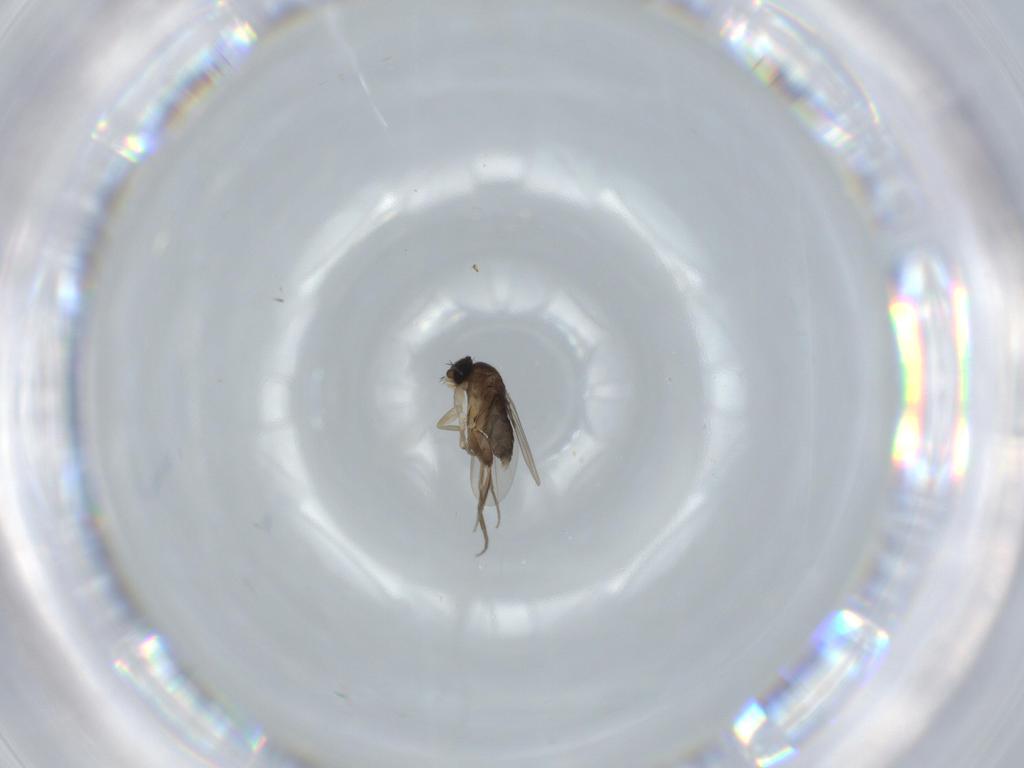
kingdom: Animalia
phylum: Arthropoda
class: Insecta
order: Diptera
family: Phoridae
